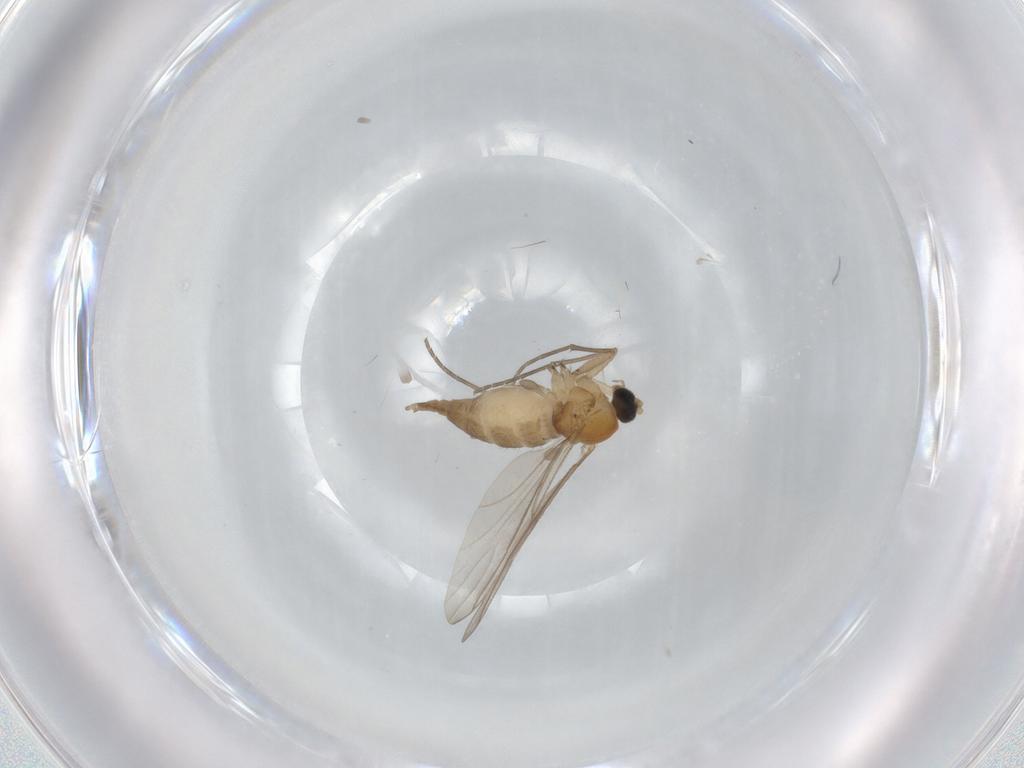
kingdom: Animalia
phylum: Arthropoda
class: Insecta
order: Diptera
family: Sciaridae
